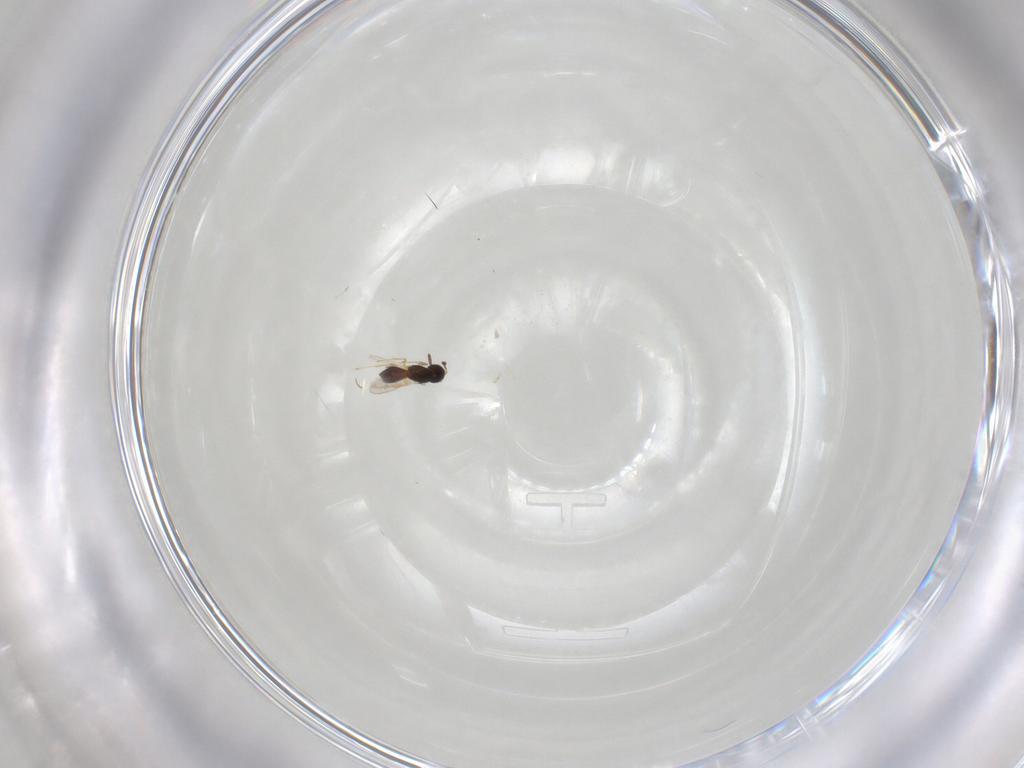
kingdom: Animalia
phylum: Arthropoda
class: Insecta
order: Hymenoptera
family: Scelionidae
